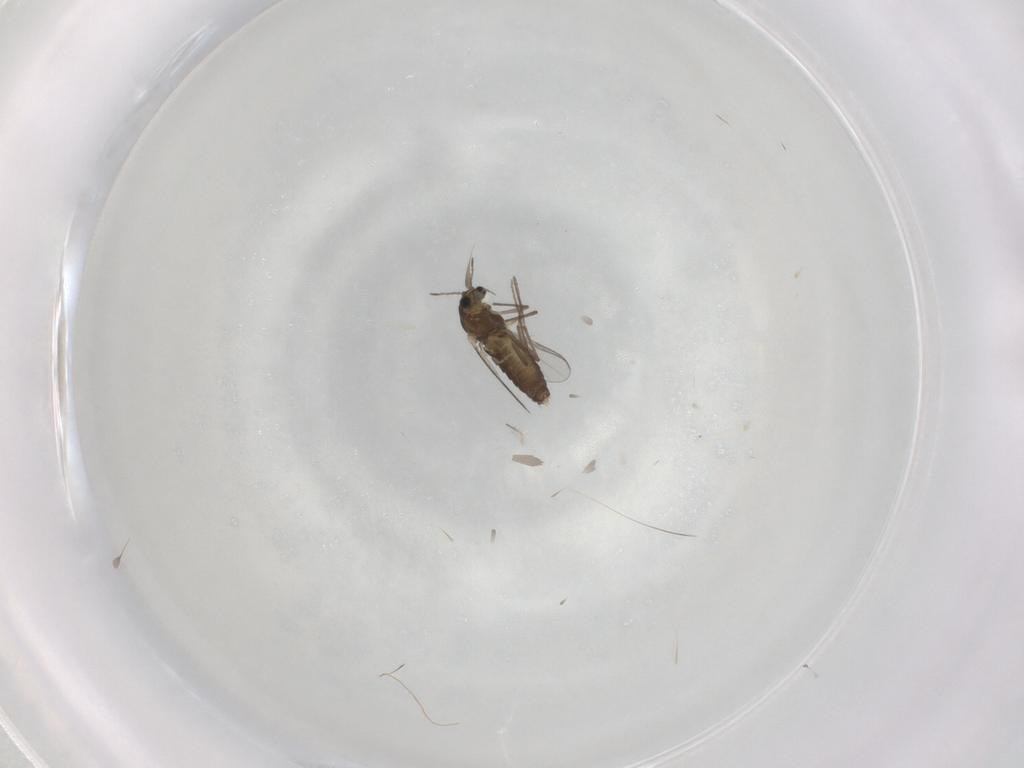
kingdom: Animalia
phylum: Arthropoda
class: Insecta
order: Diptera
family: Chironomidae
